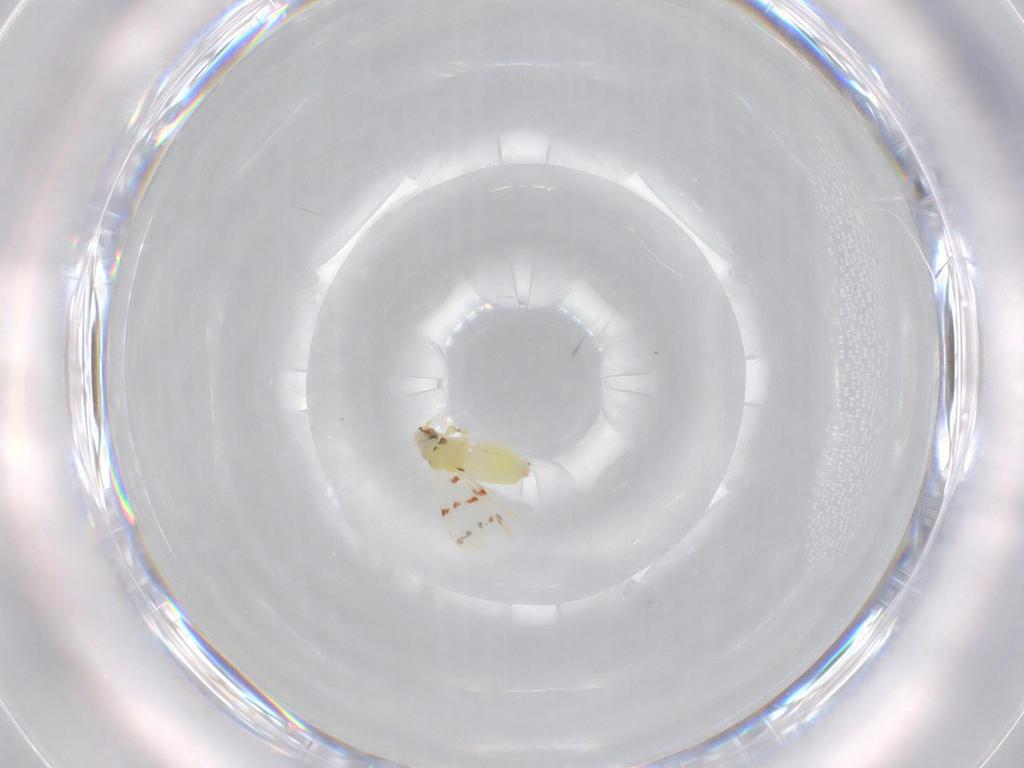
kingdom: Animalia
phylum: Arthropoda
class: Insecta
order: Hemiptera
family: Aleyrodidae
